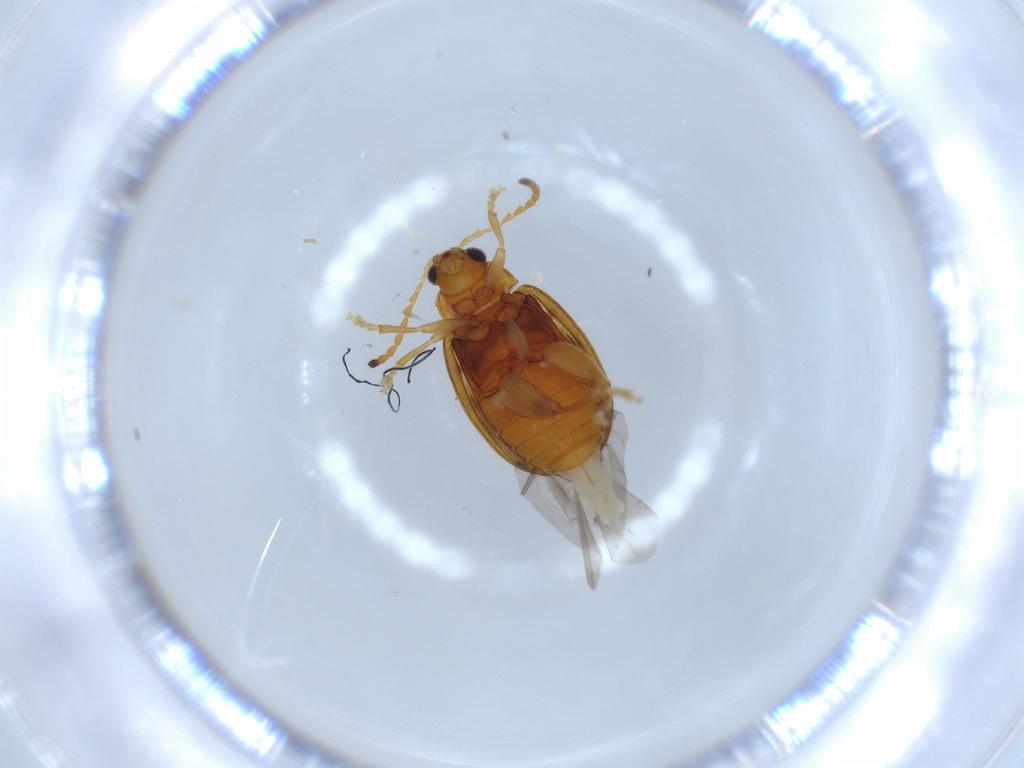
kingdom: Animalia
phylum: Arthropoda
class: Insecta
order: Coleoptera
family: Chrysomelidae
